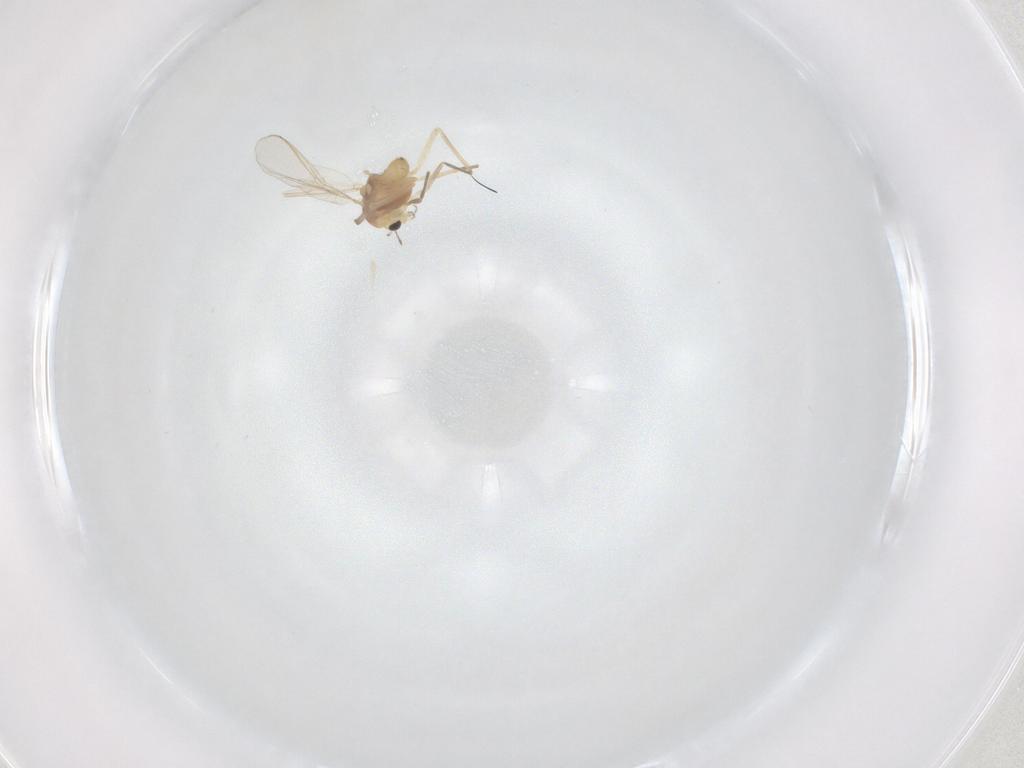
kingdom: Animalia
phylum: Arthropoda
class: Insecta
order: Diptera
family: Chironomidae
